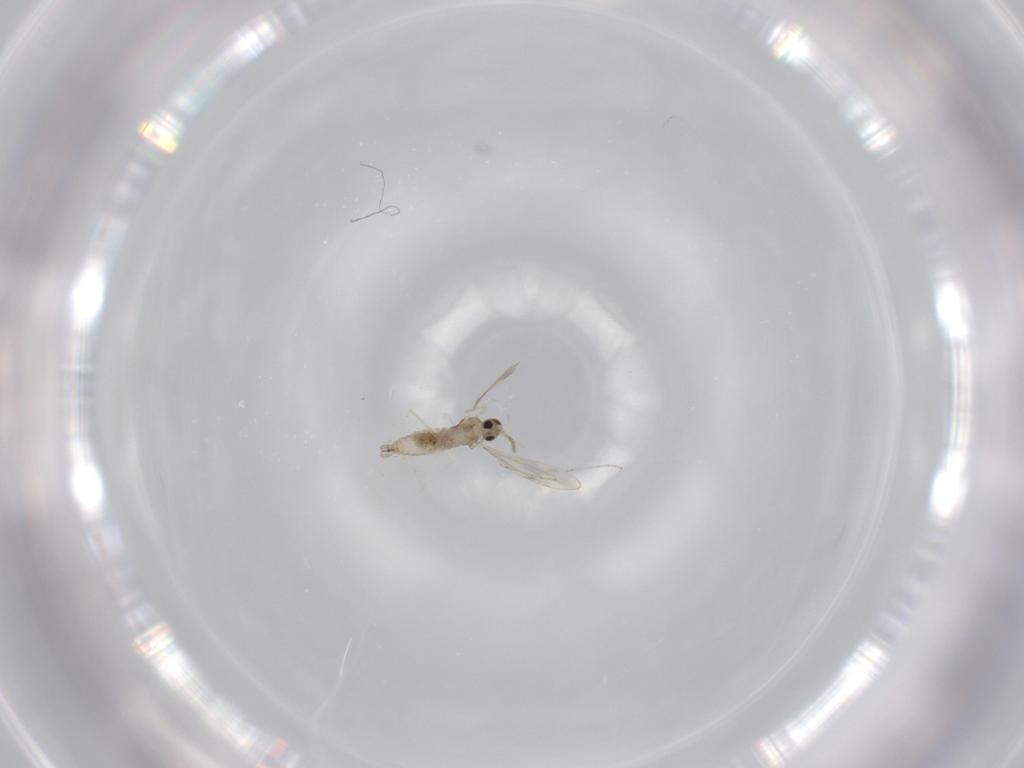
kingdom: Animalia
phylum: Arthropoda
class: Insecta
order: Diptera
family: Cecidomyiidae
